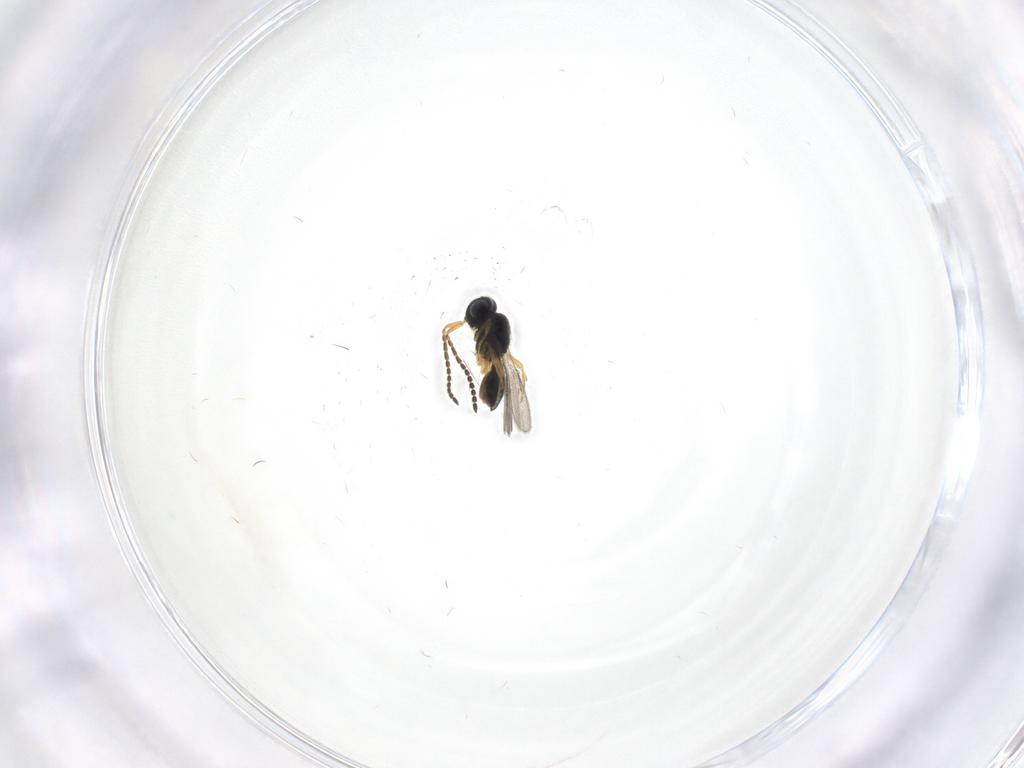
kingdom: Animalia
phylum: Arthropoda
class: Insecta
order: Hymenoptera
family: Scelionidae
